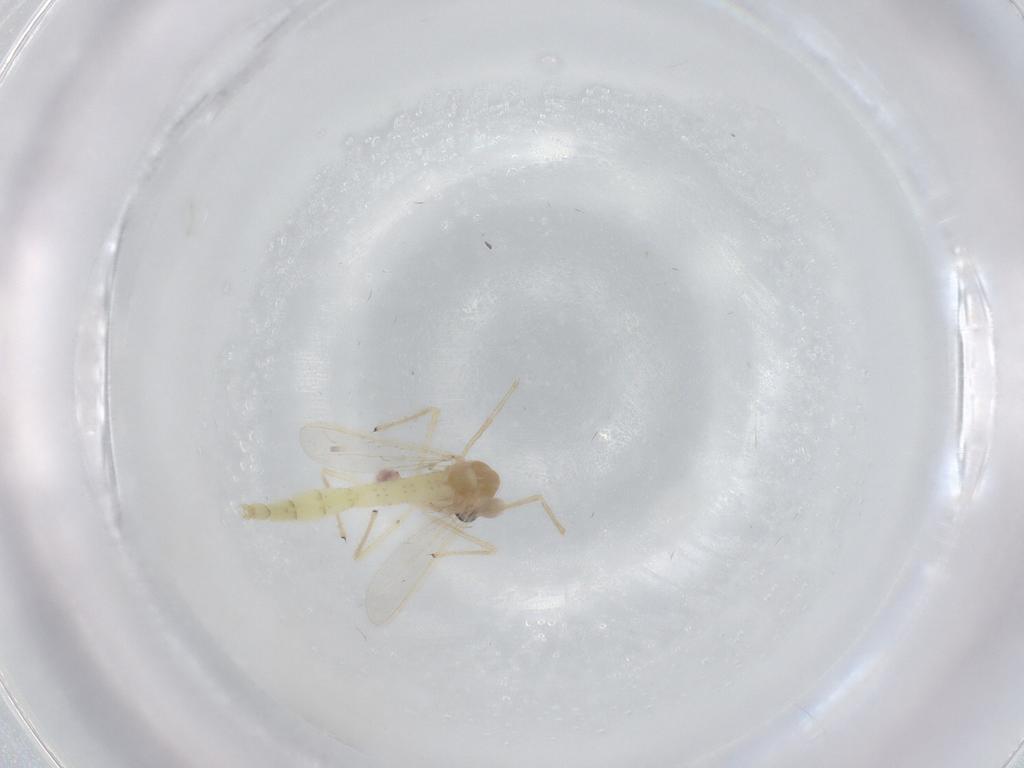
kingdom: Animalia
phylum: Arthropoda
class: Insecta
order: Diptera
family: Chironomidae
